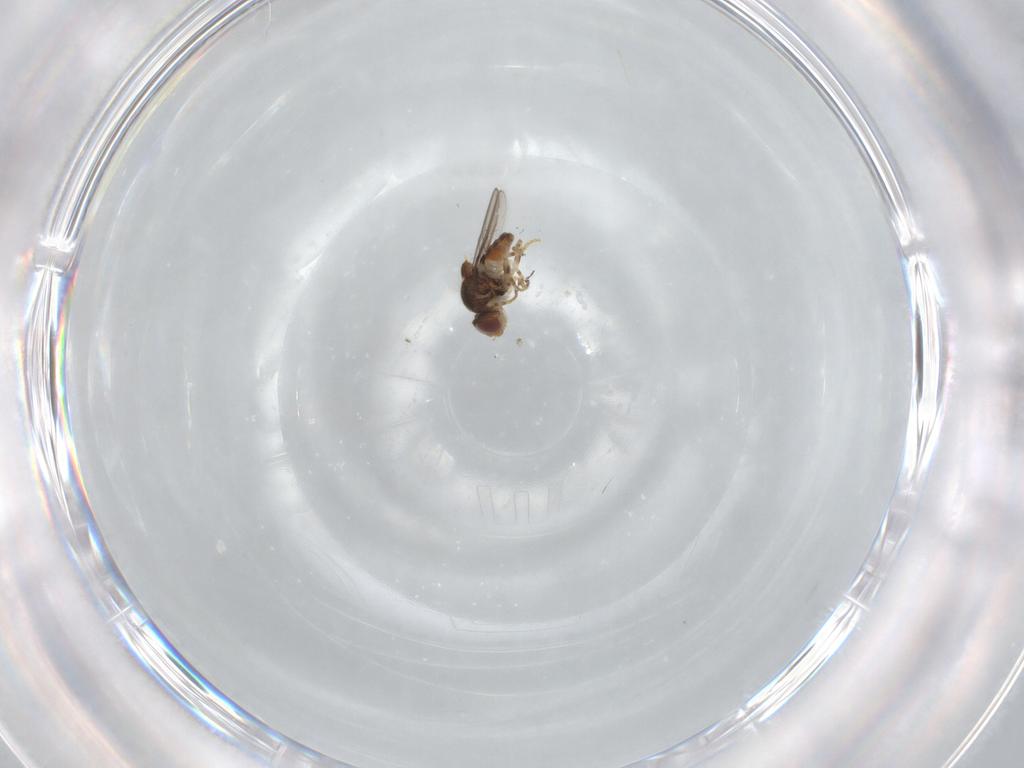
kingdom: Animalia
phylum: Arthropoda
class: Insecta
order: Diptera
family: Chloropidae
